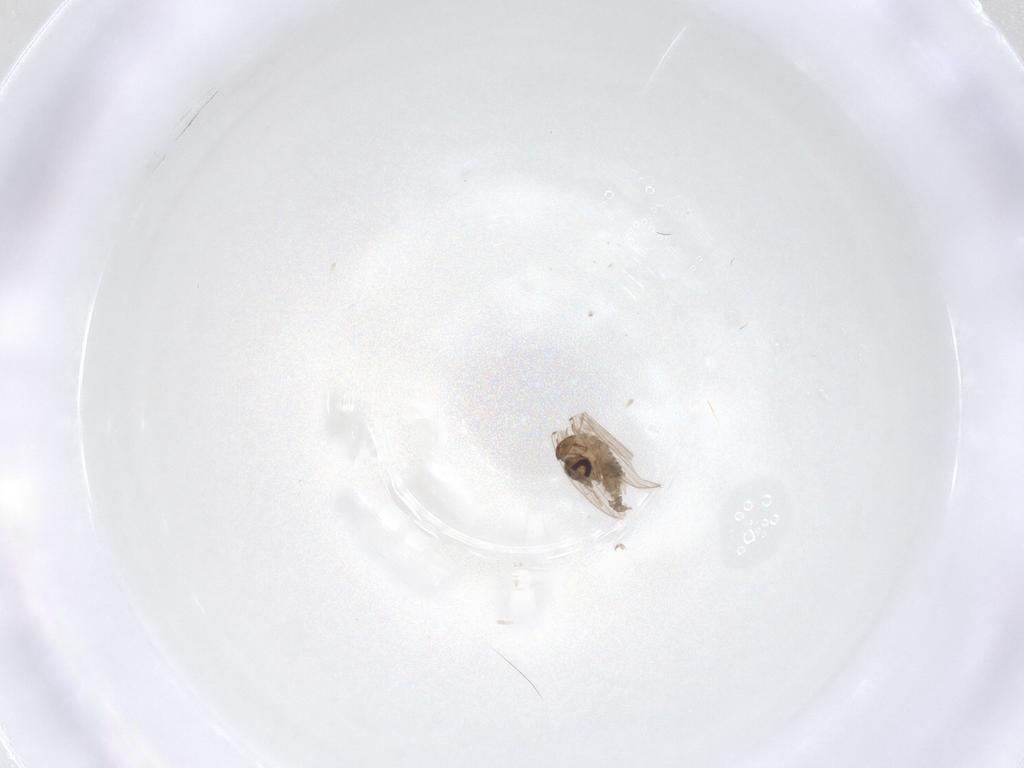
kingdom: Animalia
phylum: Arthropoda
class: Insecta
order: Diptera
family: Psychodidae
